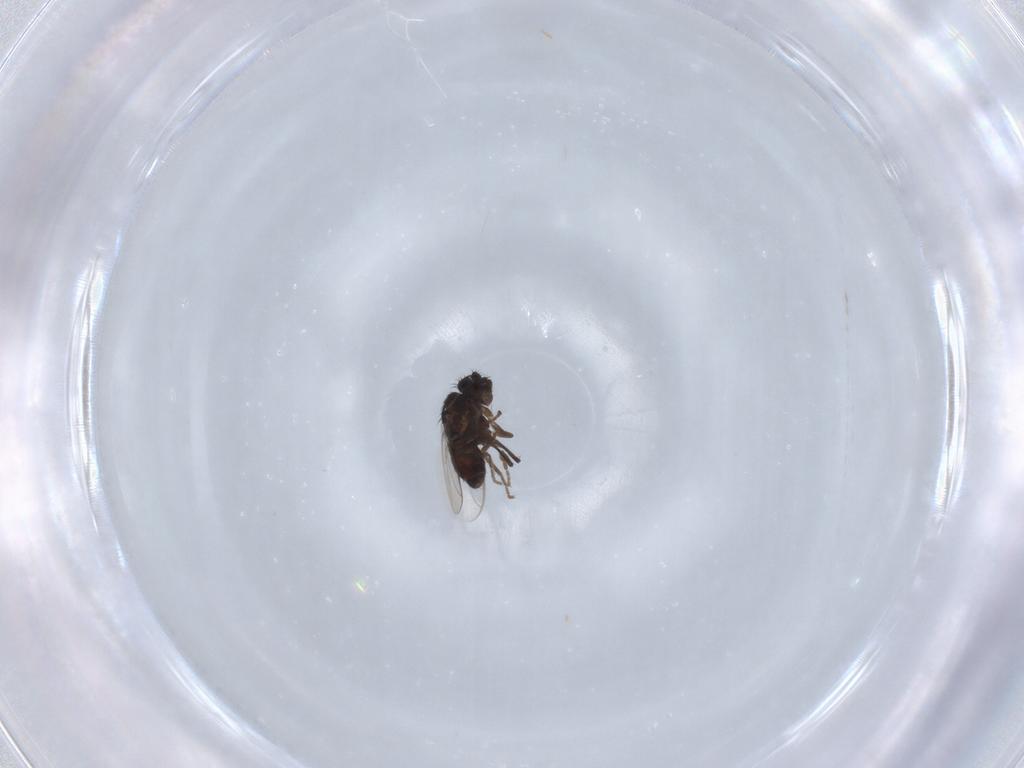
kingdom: Animalia
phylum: Arthropoda
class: Insecta
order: Diptera
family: Sphaeroceridae
